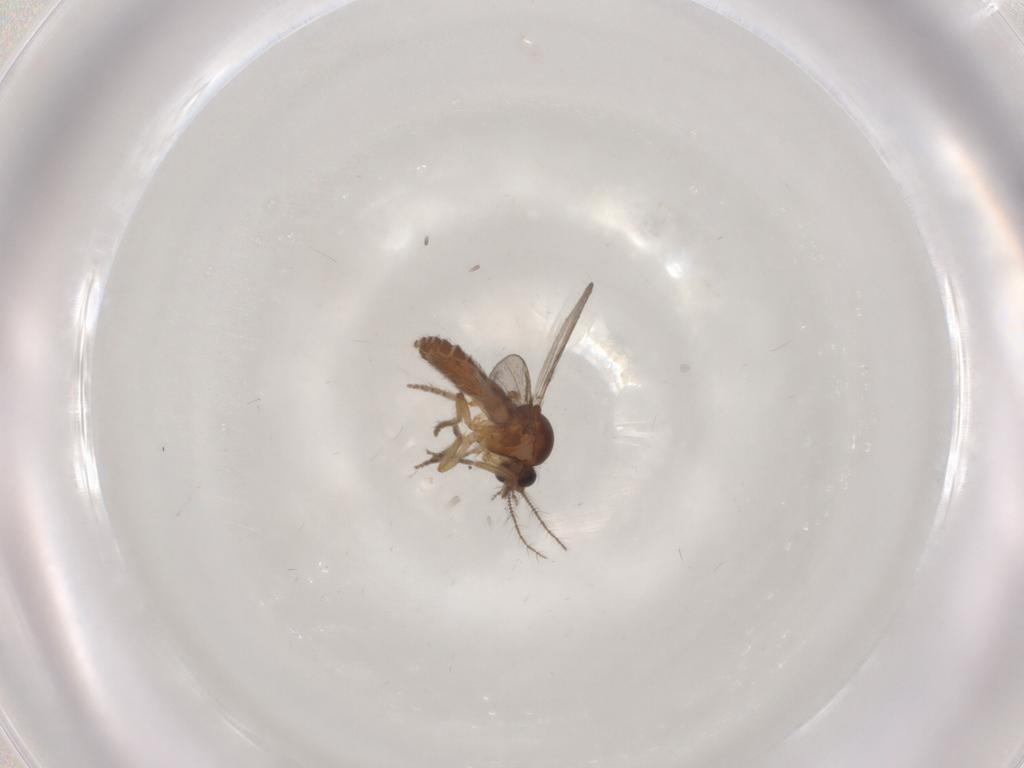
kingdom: Animalia
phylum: Arthropoda
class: Insecta
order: Diptera
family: Ceratopogonidae
